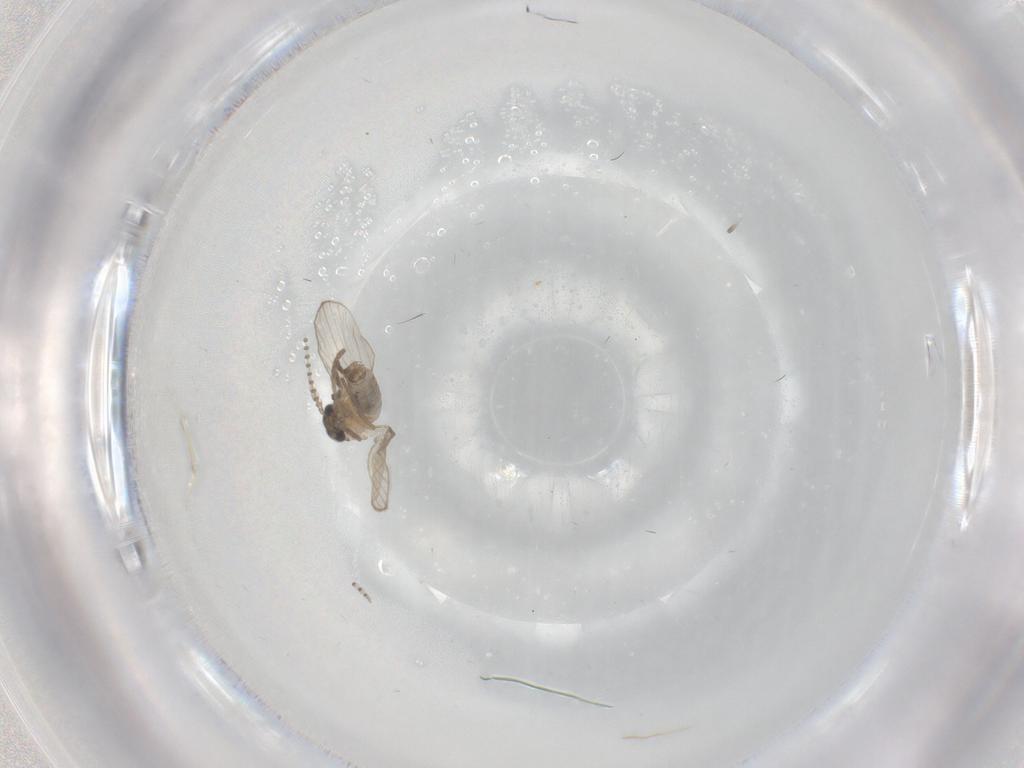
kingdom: Animalia
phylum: Arthropoda
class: Insecta
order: Diptera
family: Psychodidae
